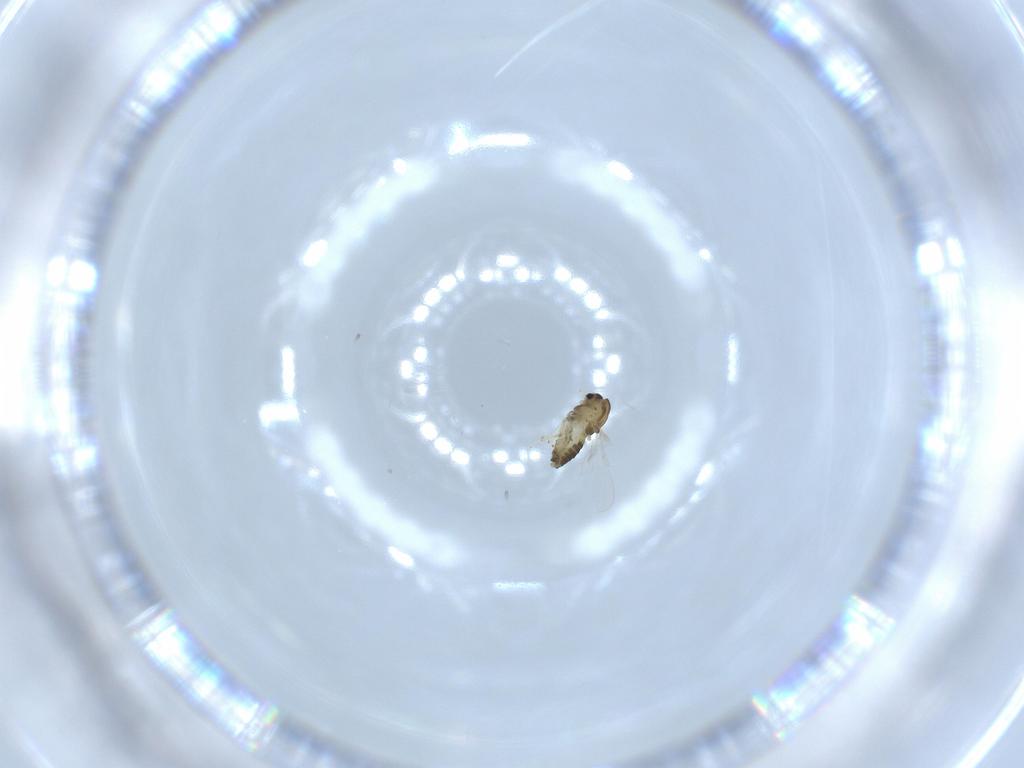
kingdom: Animalia
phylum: Arthropoda
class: Insecta
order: Diptera
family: Chironomidae
